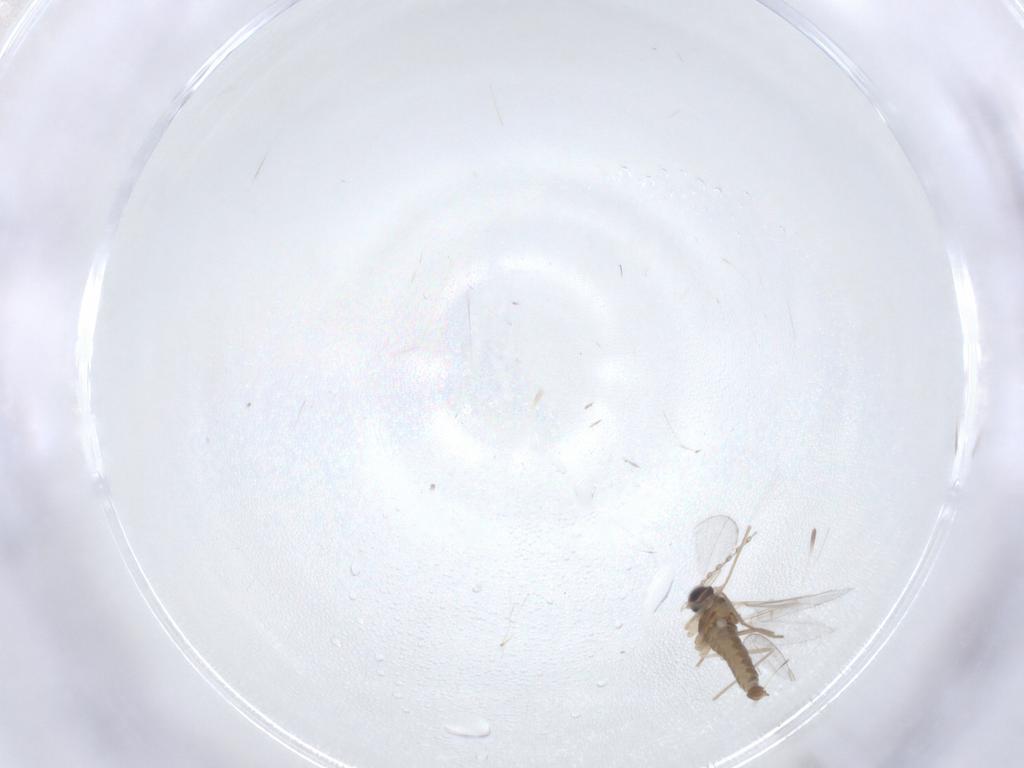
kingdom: Animalia
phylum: Arthropoda
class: Insecta
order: Diptera
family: Cecidomyiidae
